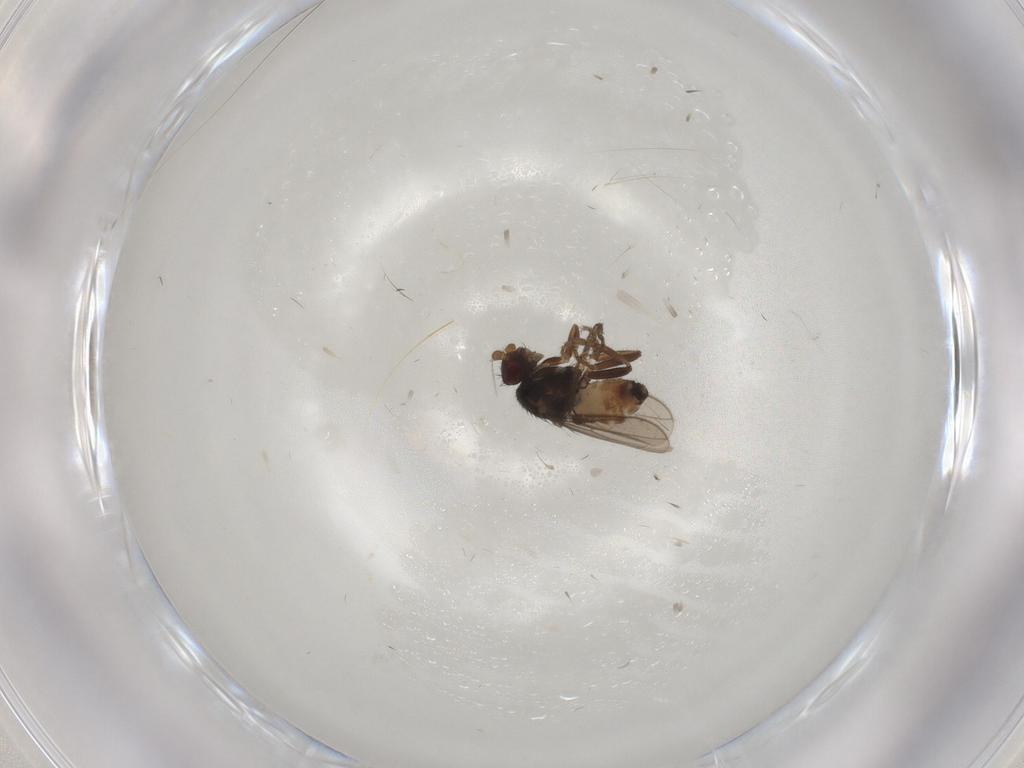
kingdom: Animalia
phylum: Arthropoda
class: Insecta
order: Diptera
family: Sphaeroceridae
